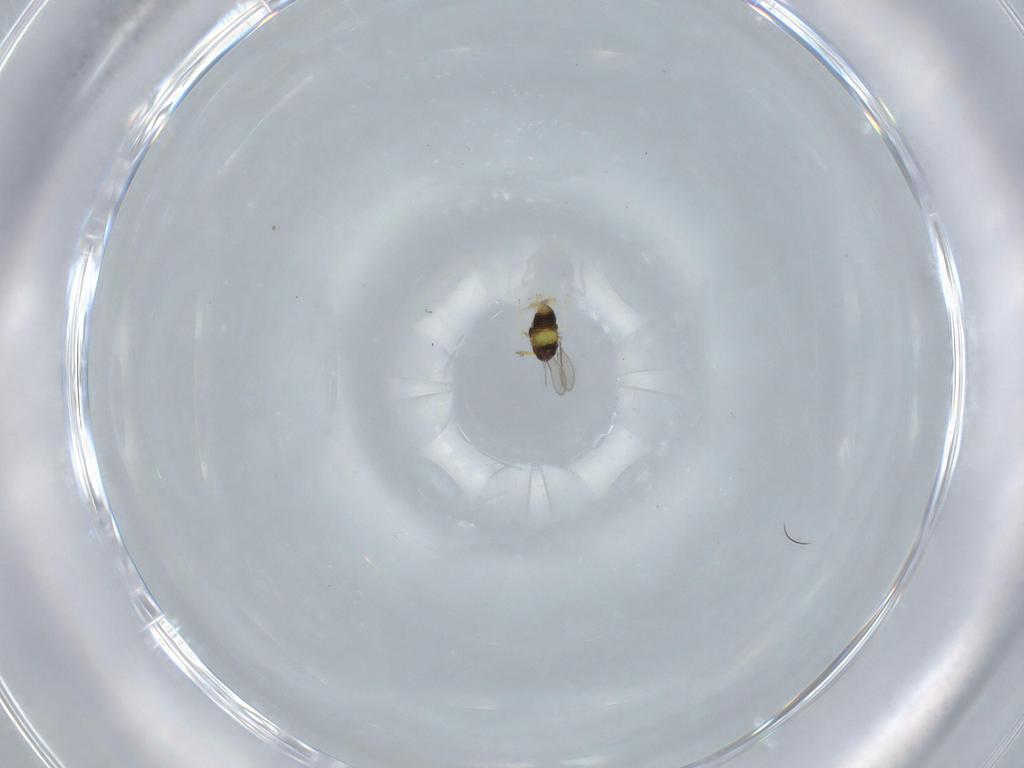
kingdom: Animalia
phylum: Arthropoda
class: Insecta
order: Hymenoptera
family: Aphelinidae
